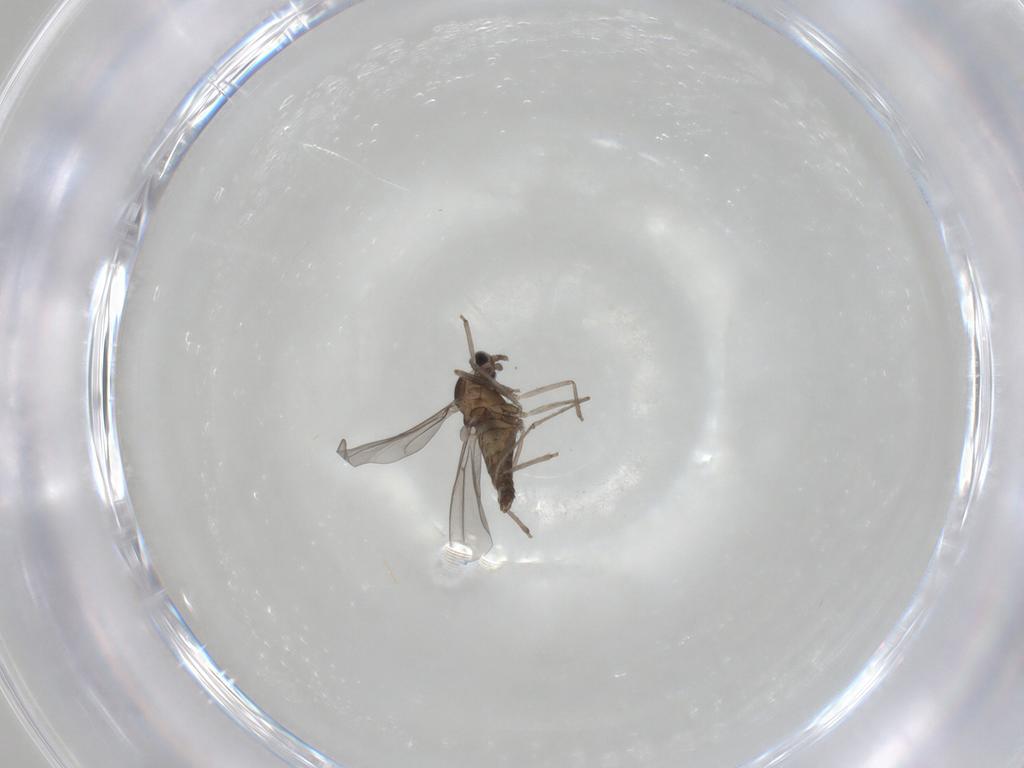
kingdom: Animalia
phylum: Arthropoda
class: Insecta
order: Diptera
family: Cecidomyiidae
